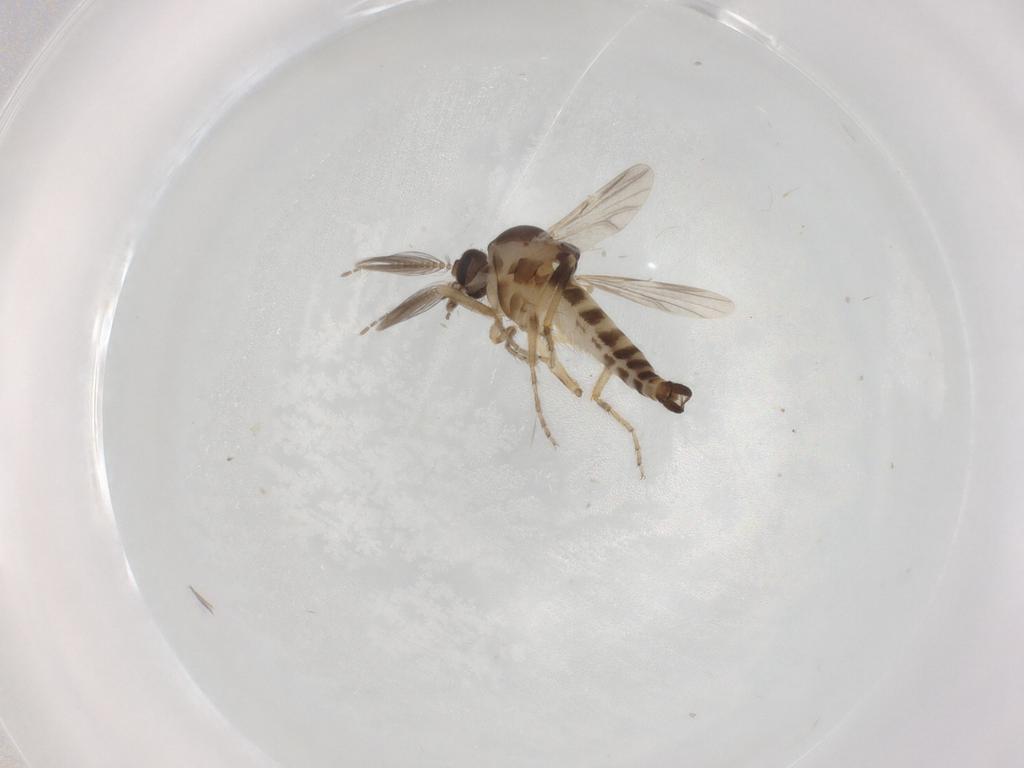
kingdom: Animalia
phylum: Arthropoda
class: Insecta
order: Diptera
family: Ceratopogonidae
